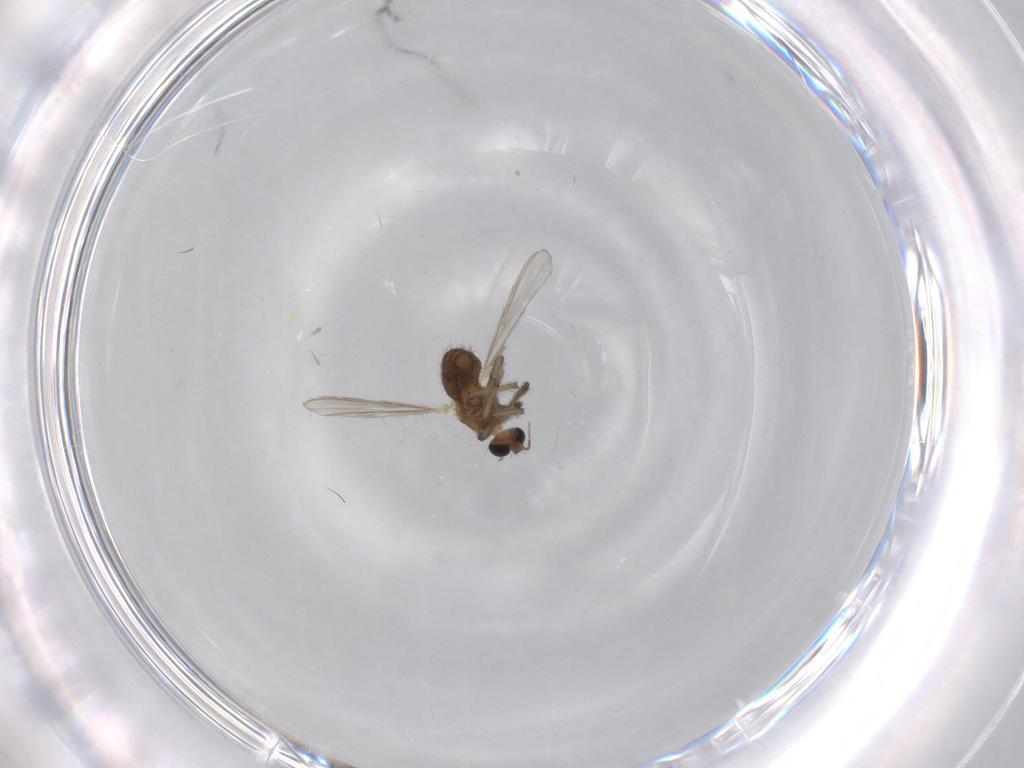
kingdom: Animalia
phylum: Arthropoda
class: Insecta
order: Diptera
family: Chironomidae
